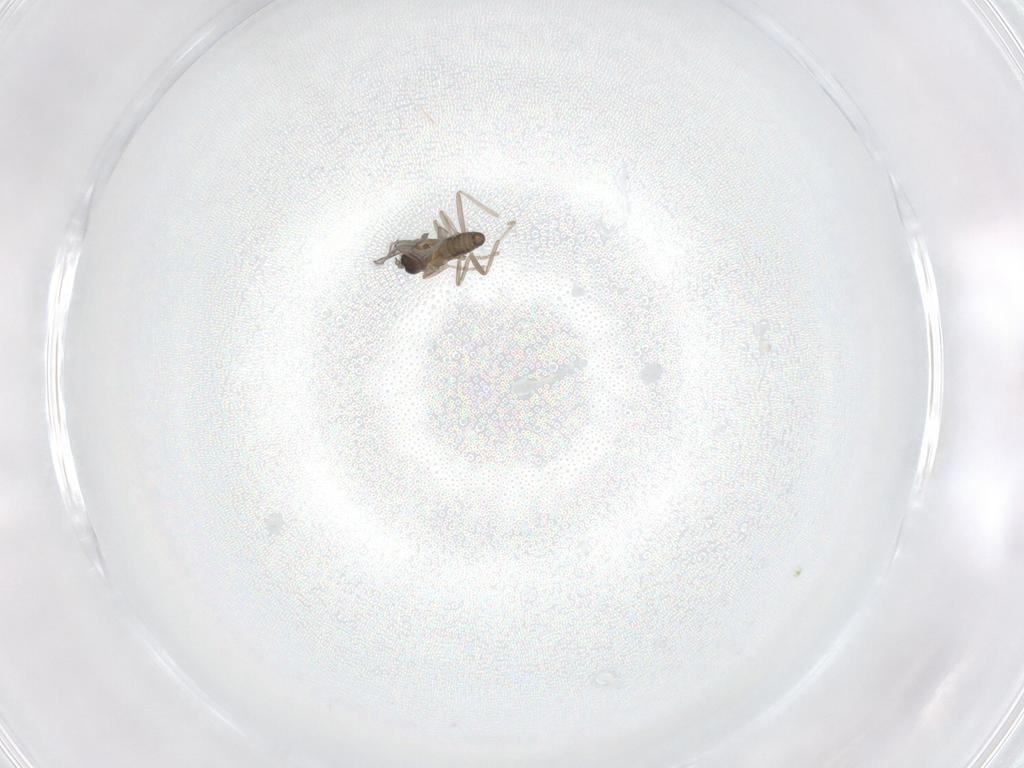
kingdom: Animalia
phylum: Arthropoda
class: Insecta
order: Diptera
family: Cecidomyiidae
